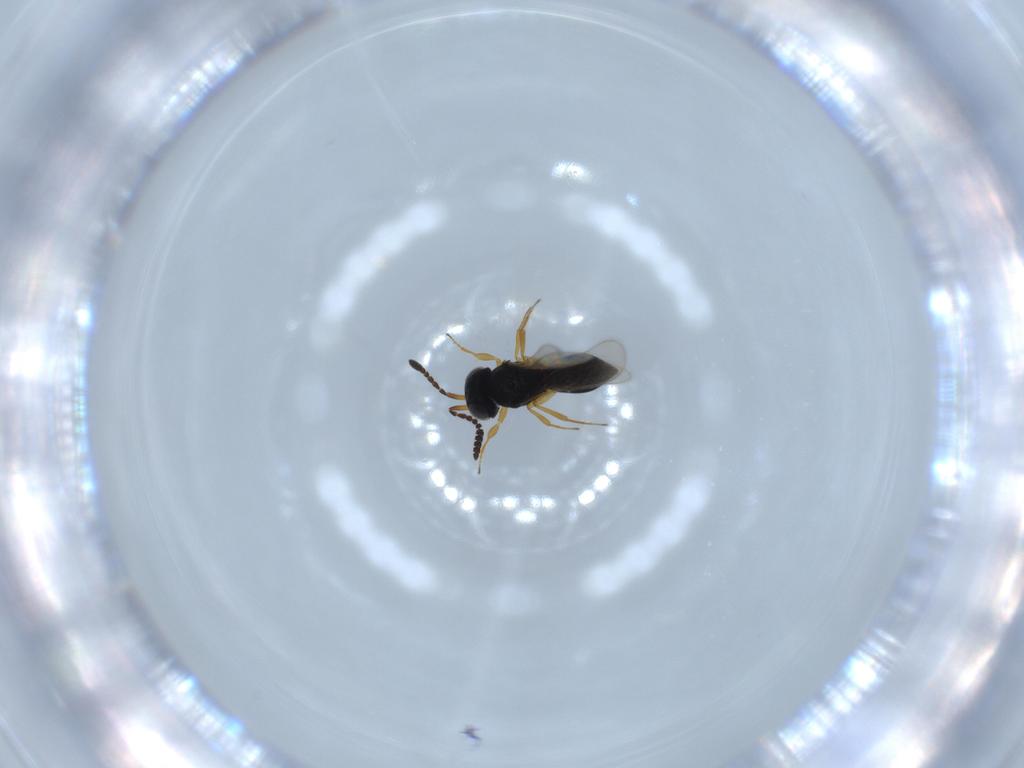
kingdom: Animalia
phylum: Arthropoda
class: Insecta
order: Hymenoptera
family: Scelionidae
